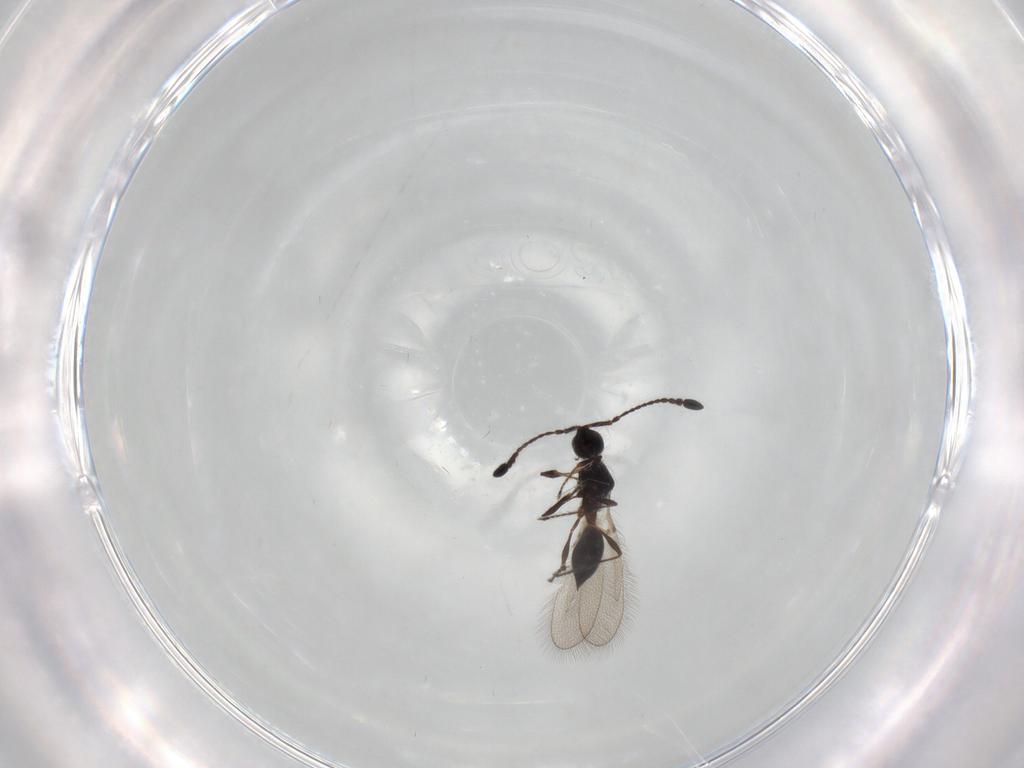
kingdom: Animalia
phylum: Arthropoda
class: Insecta
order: Hymenoptera
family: Diapriidae
